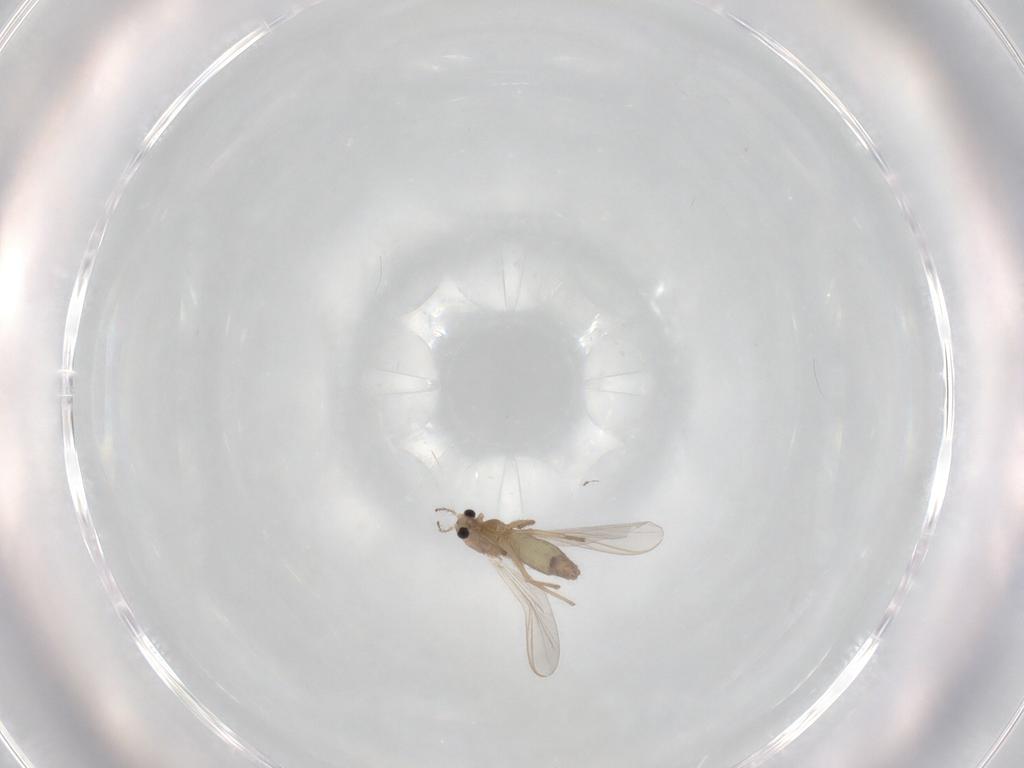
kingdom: Animalia
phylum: Arthropoda
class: Insecta
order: Diptera
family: Chironomidae
